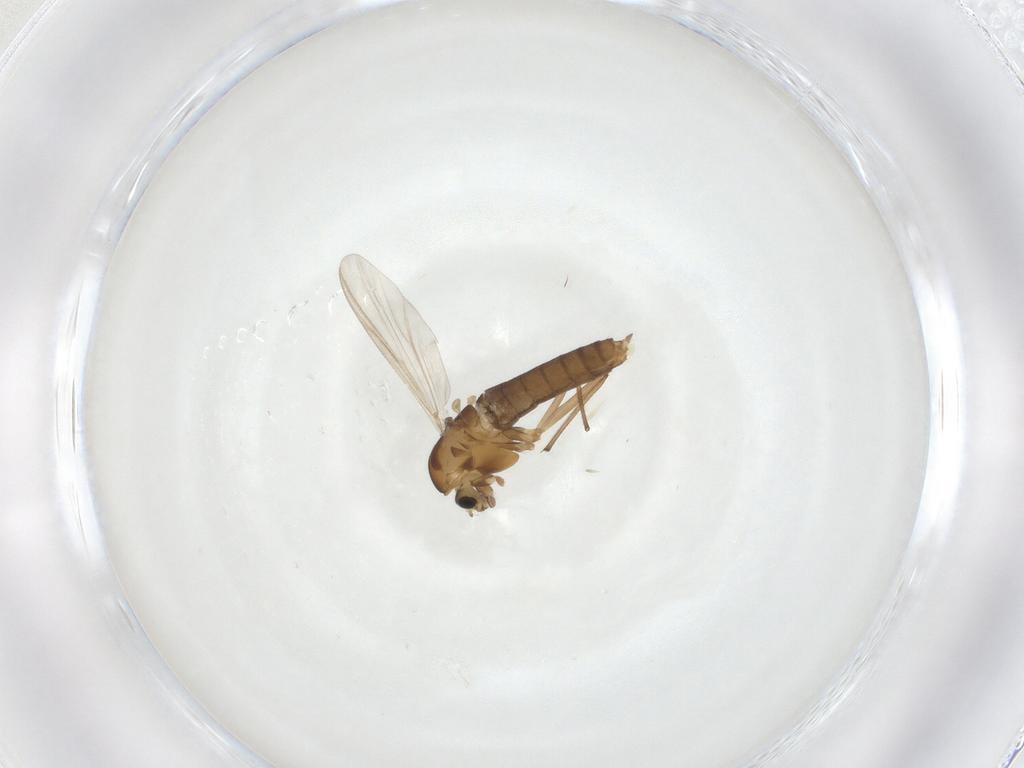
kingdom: Animalia
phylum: Arthropoda
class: Insecta
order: Diptera
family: Chironomidae
